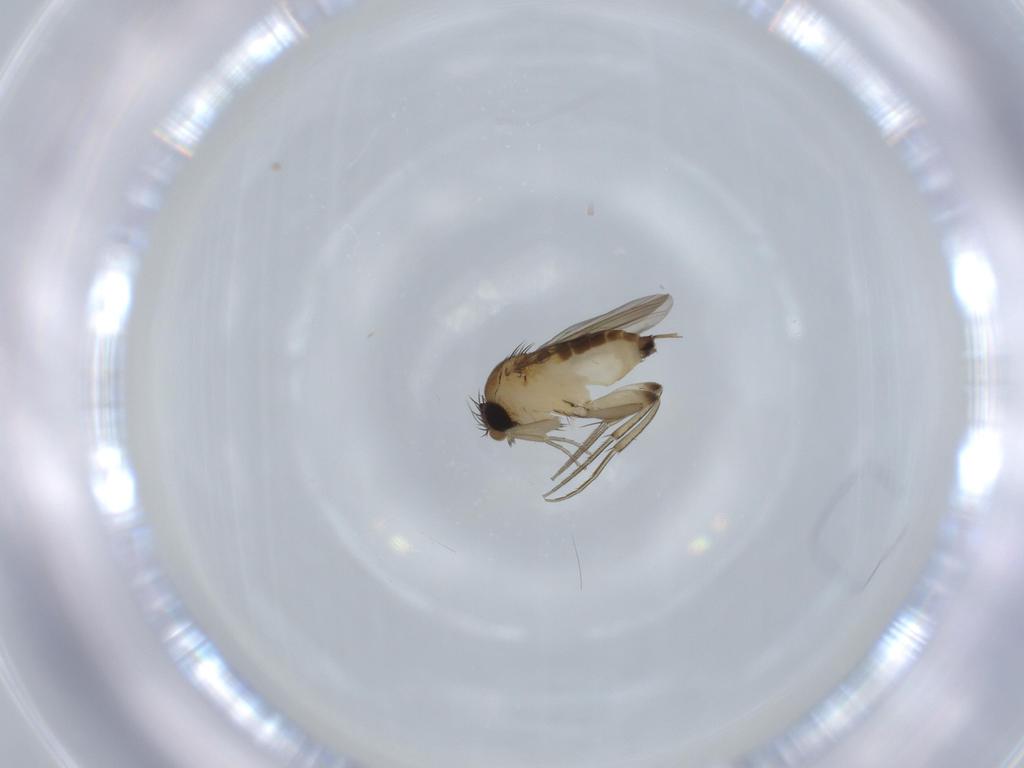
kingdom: Animalia
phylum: Arthropoda
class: Insecta
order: Diptera
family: Phoridae
